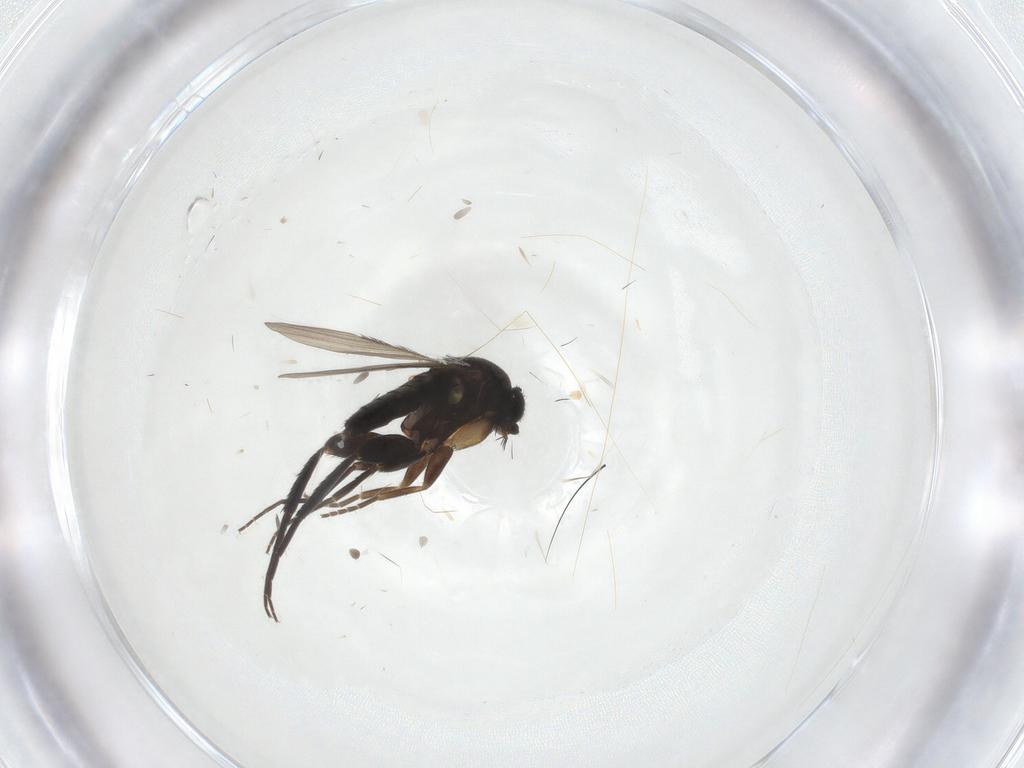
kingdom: Animalia
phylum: Arthropoda
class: Insecta
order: Diptera
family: Phoridae
